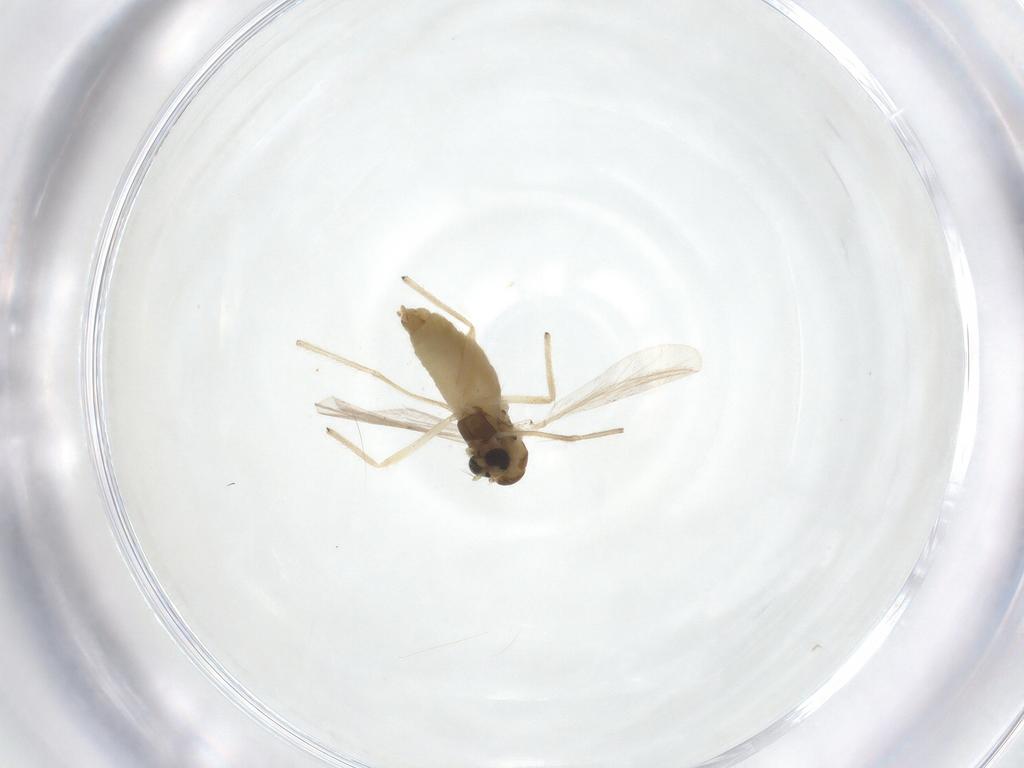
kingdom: Animalia
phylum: Arthropoda
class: Insecta
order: Diptera
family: Chironomidae
